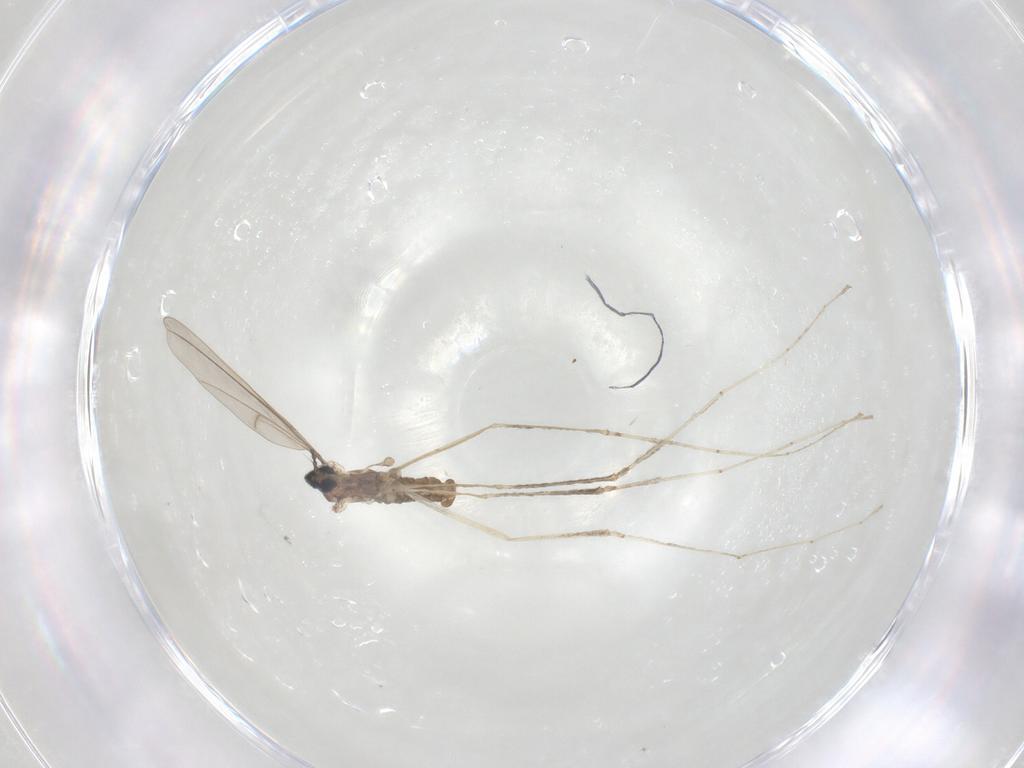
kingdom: Animalia
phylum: Arthropoda
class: Insecta
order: Diptera
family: Cecidomyiidae
